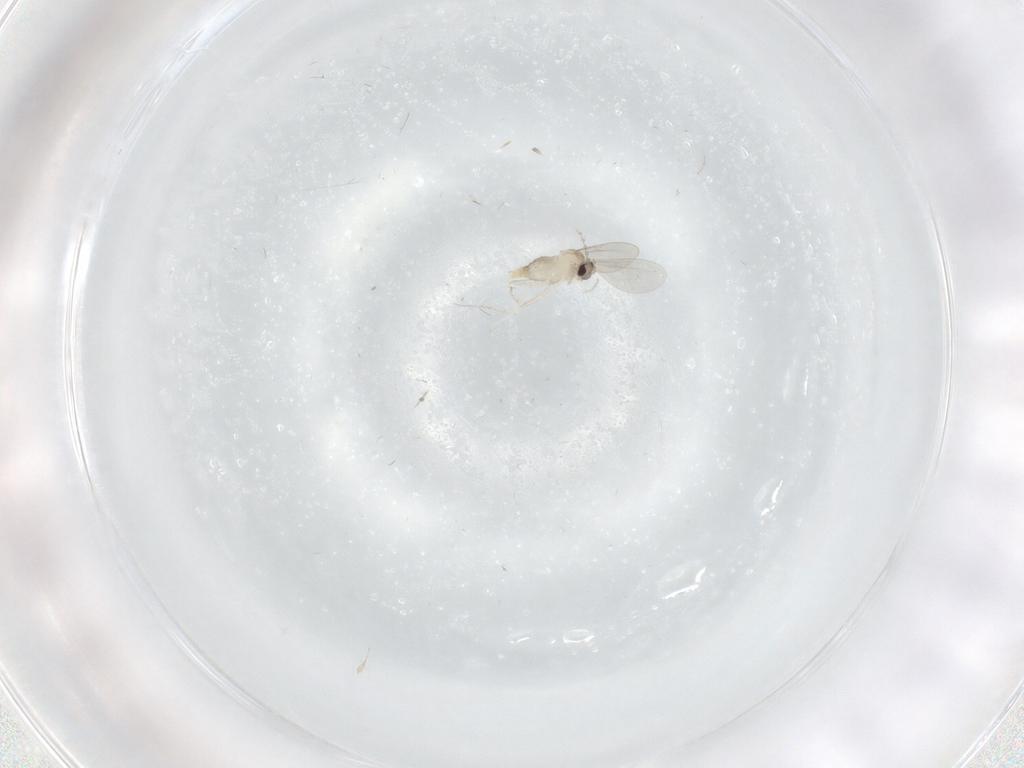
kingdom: Animalia
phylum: Arthropoda
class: Insecta
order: Diptera
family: Cecidomyiidae
